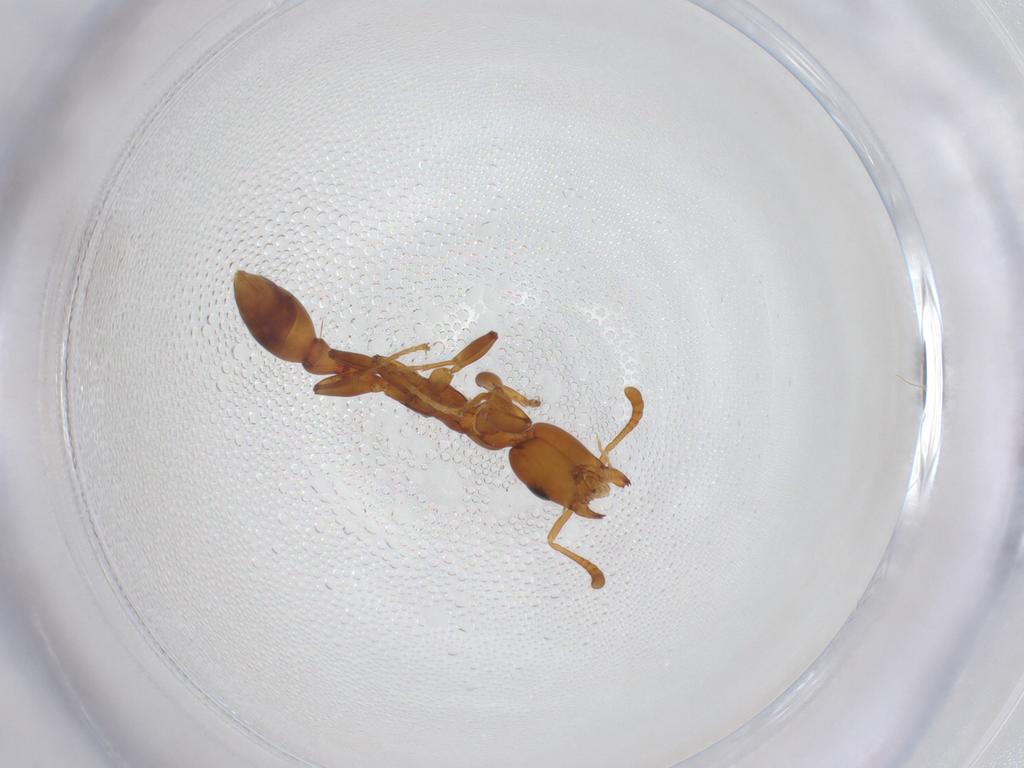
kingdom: Animalia
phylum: Arthropoda
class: Insecta
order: Hymenoptera
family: Formicidae
